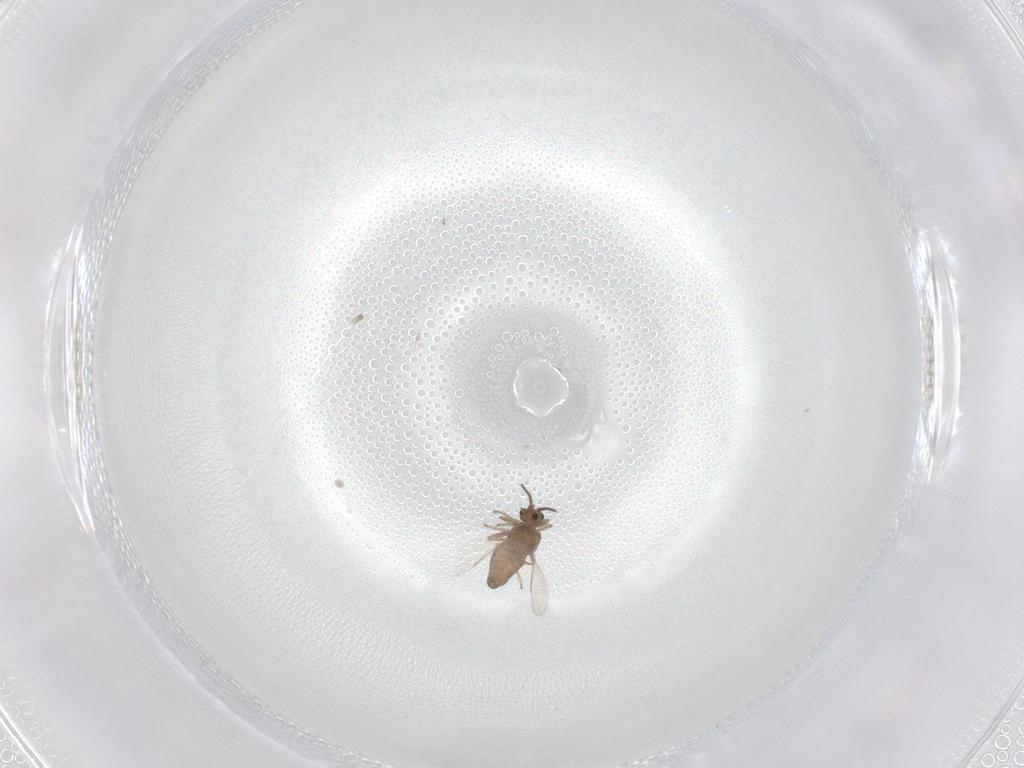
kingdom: Animalia
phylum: Arthropoda
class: Insecta
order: Diptera
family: Ceratopogonidae
